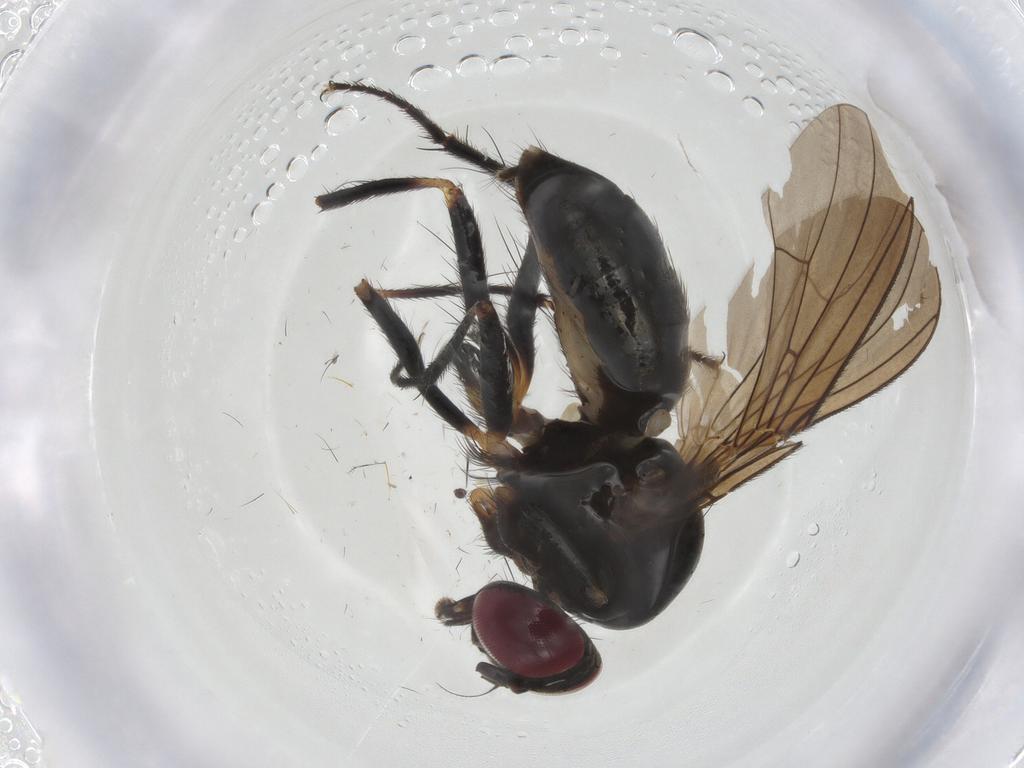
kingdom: Animalia
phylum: Arthropoda
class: Insecta
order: Diptera
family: Anthomyiidae
